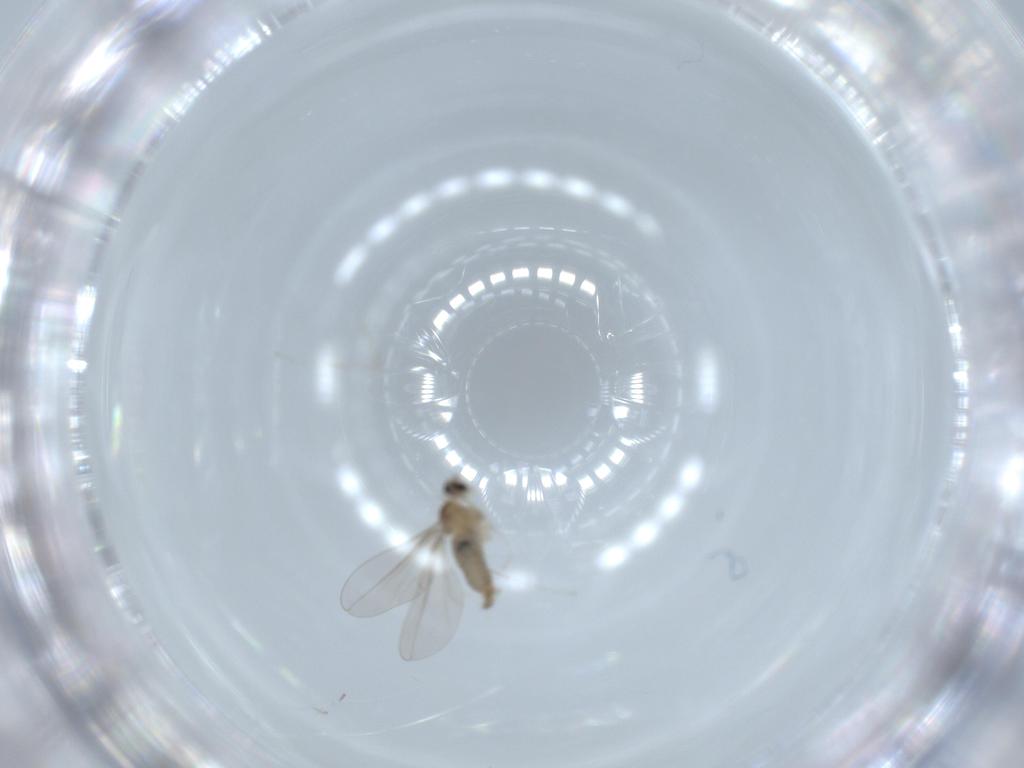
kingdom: Animalia
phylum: Arthropoda
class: Insecta
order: Diptera
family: Cecidomyiidae
